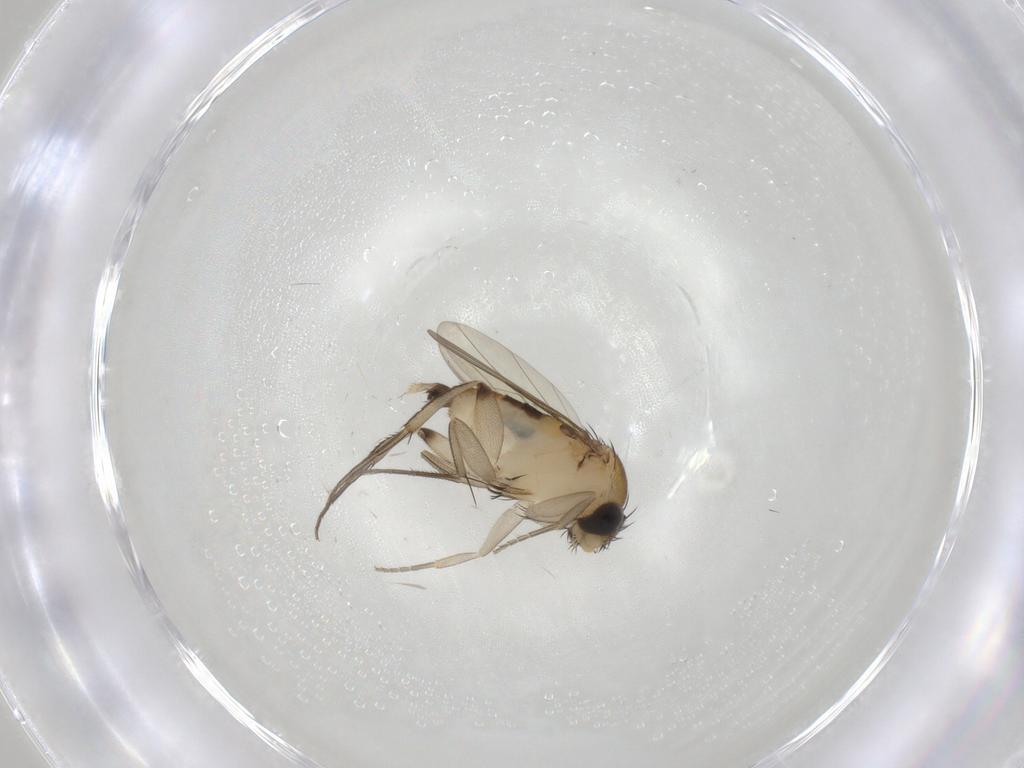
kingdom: Animalia
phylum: Arthropoda
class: Insecta
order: Diptera
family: Phoridae
